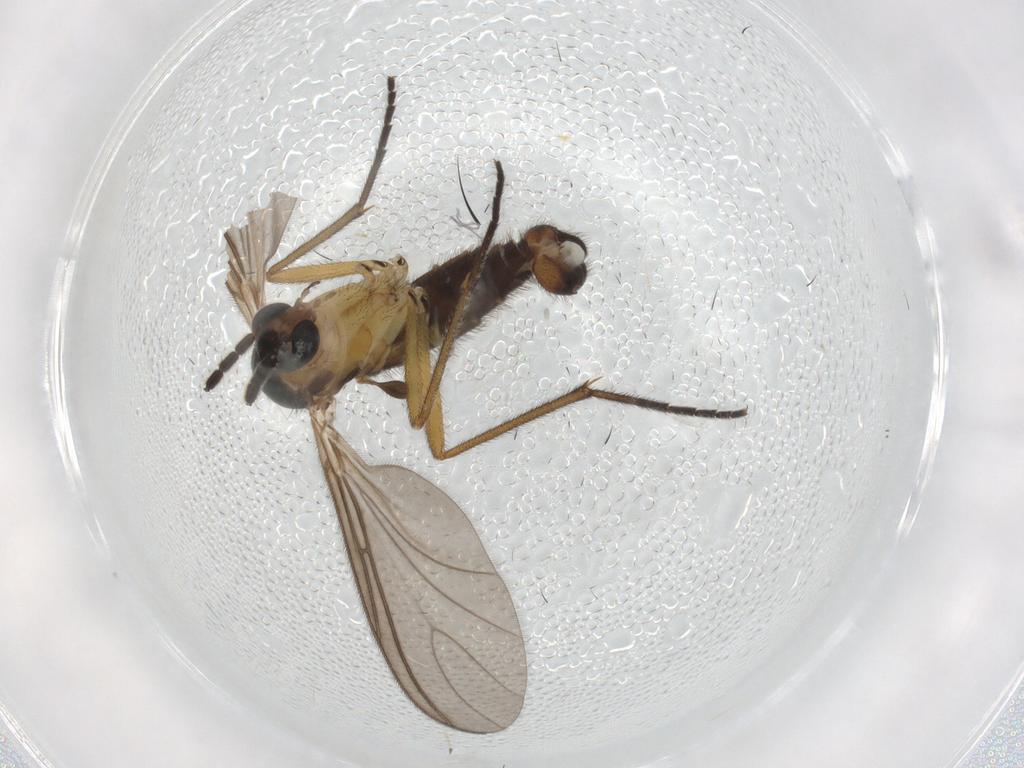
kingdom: Animalia
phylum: Arthropoda
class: Insecta
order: Diptera
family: Sciaridae
